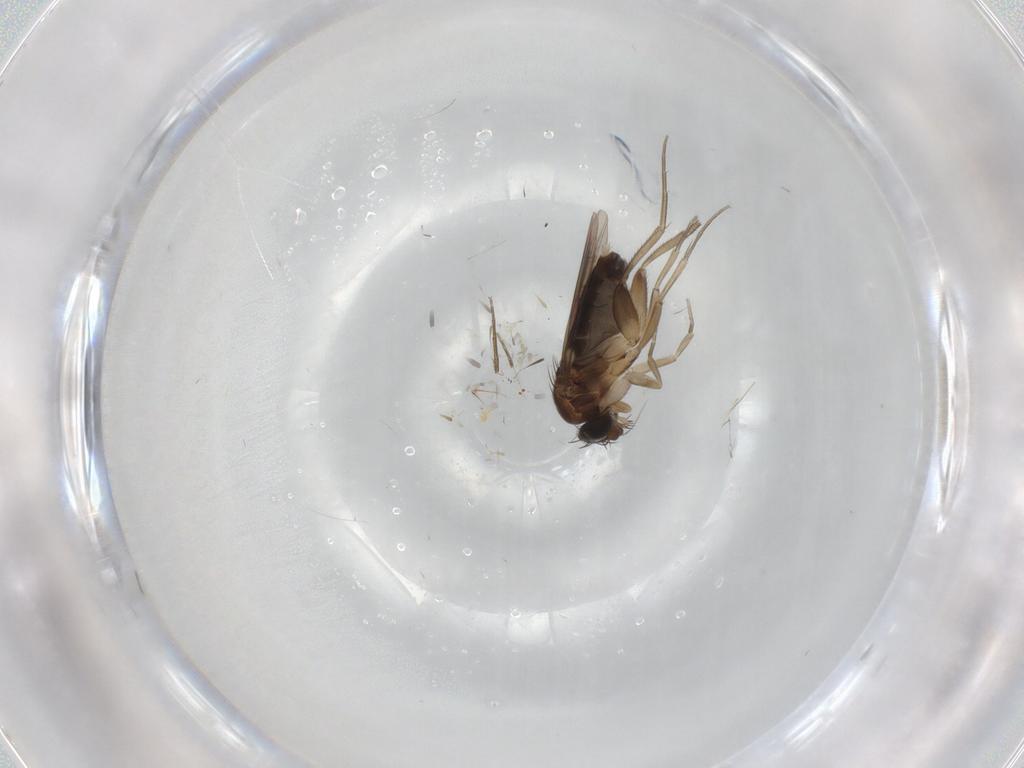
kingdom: Animalia
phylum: Arthropoda
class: Insecta
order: Diptera
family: Phoridae
